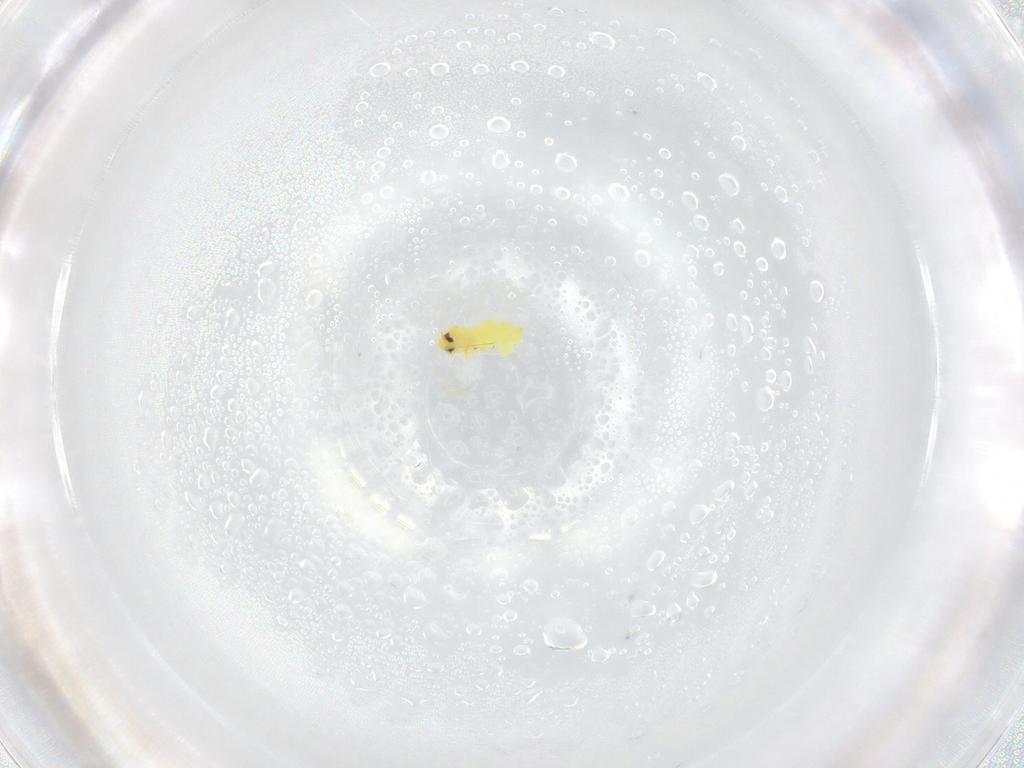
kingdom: Animalia
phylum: Arthropoda
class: Insecta
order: Hemiptera
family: Aleyrodidae
